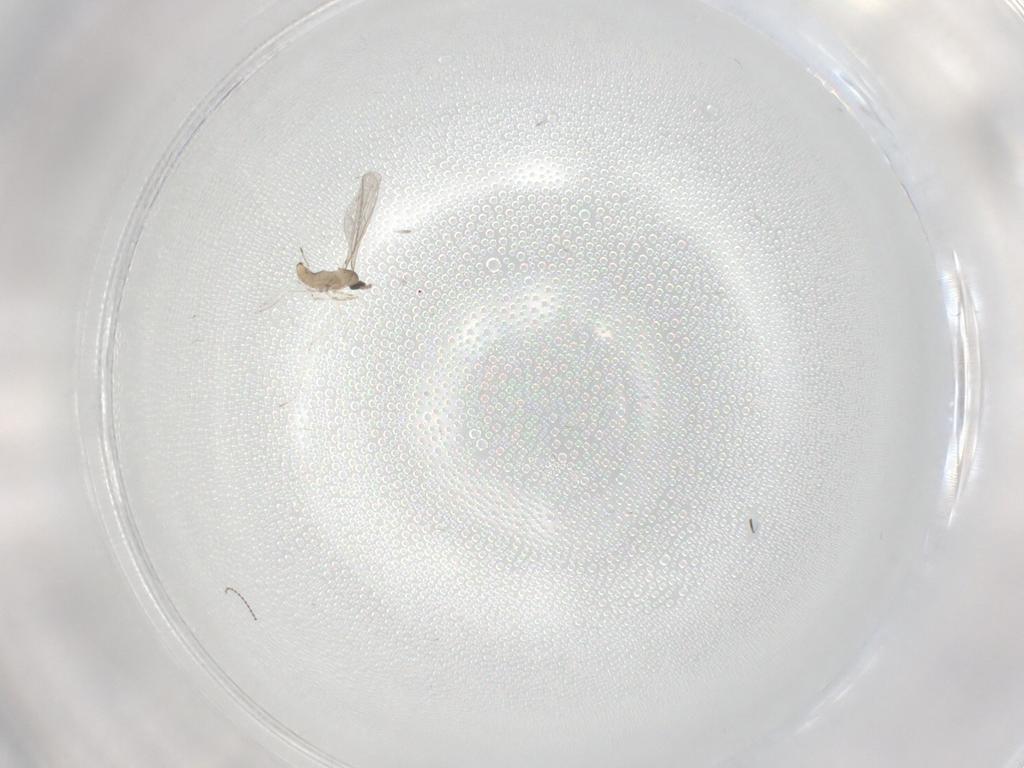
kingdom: Animalia
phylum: Arthropoda
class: Insecta
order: Diptera
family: Cecidomyiidae
